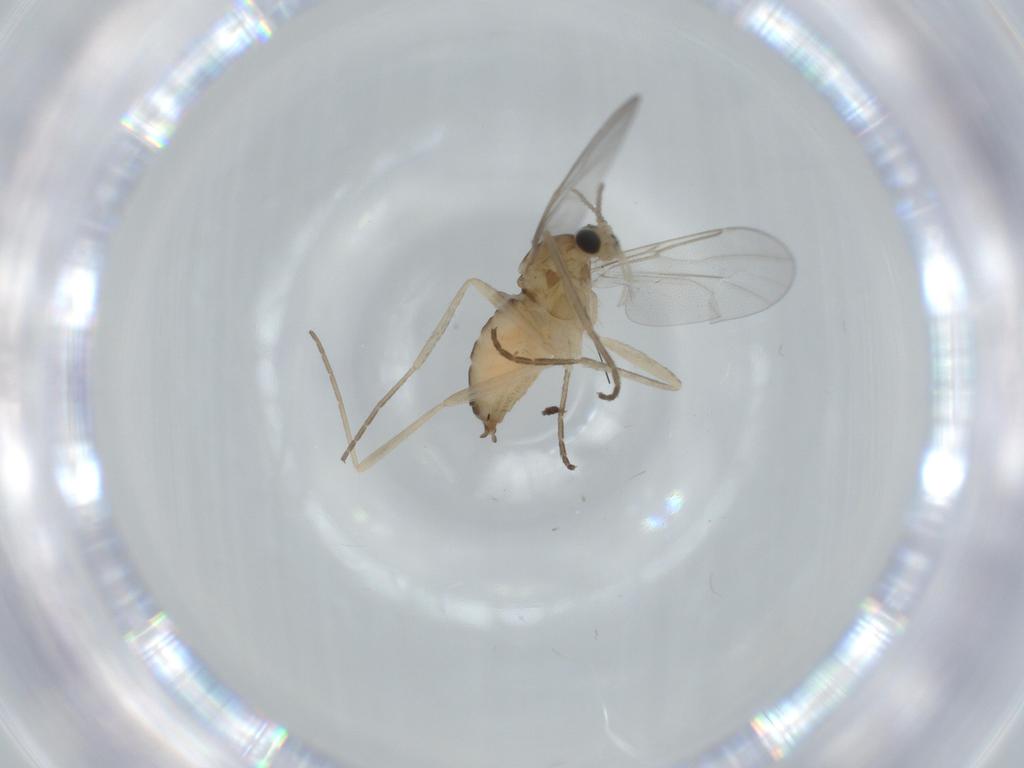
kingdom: Animalia
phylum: Arthropoda
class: Insecta
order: Diptera
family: Cecidomyiidae
